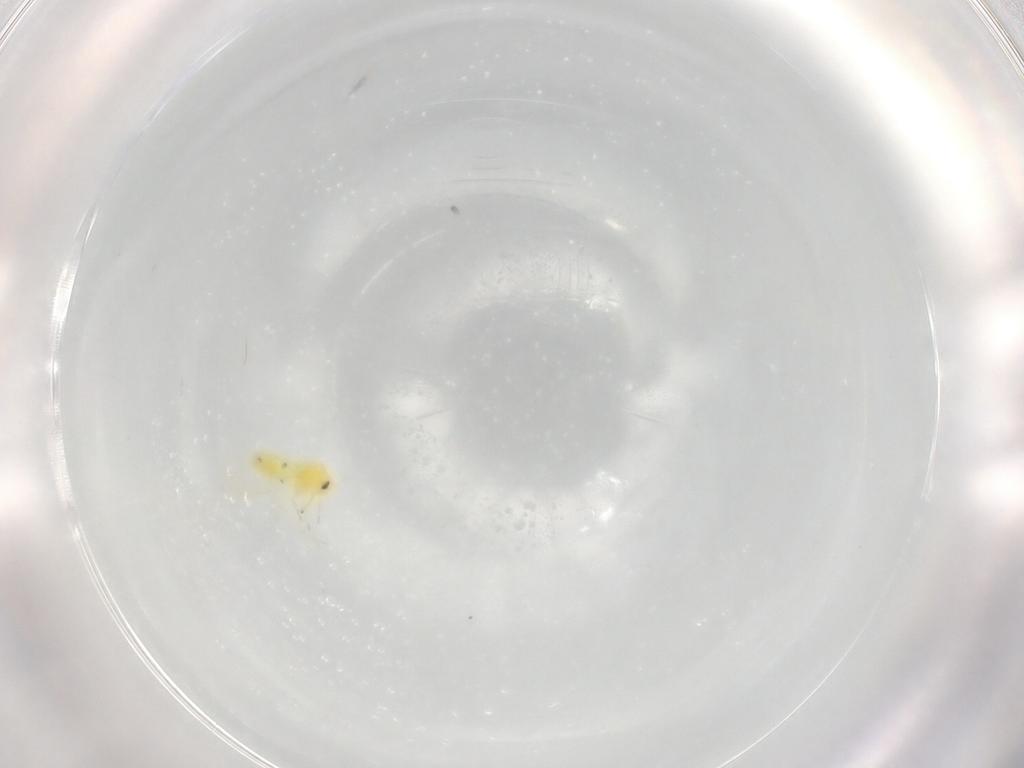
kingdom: Animalia
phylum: Arthropoda
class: Insecta
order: Hemiptera
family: Aleyrodidae
